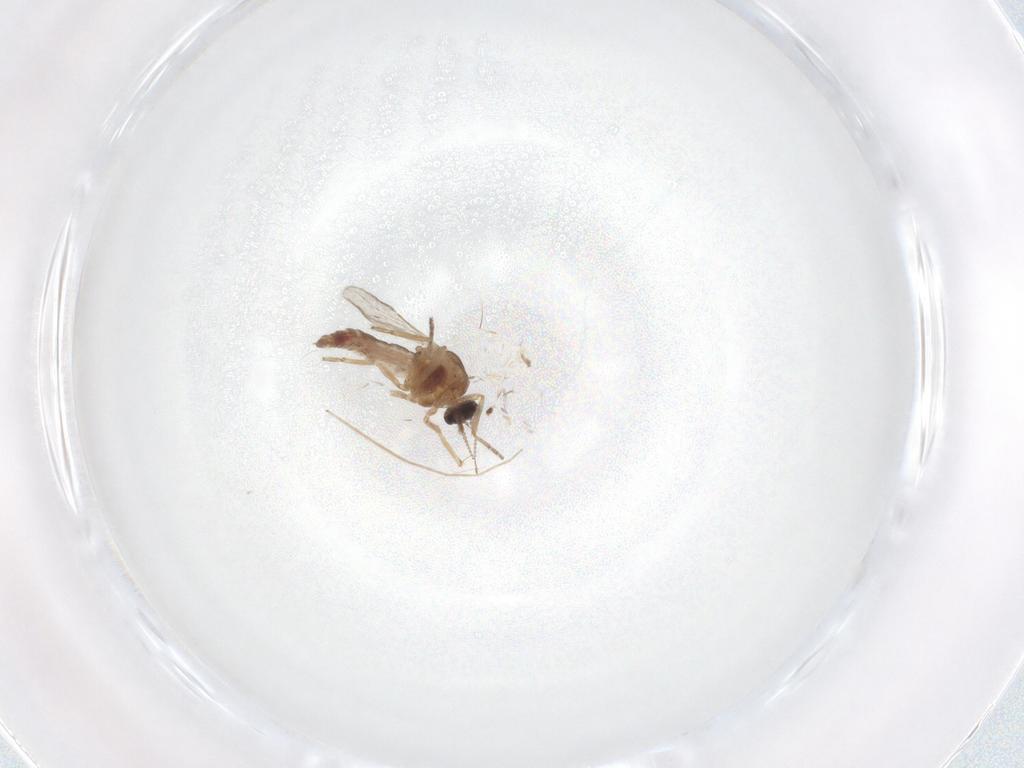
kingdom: Animalia
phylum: Arthropoda
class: Insecta
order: Diptera
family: Ceratopogonidae
